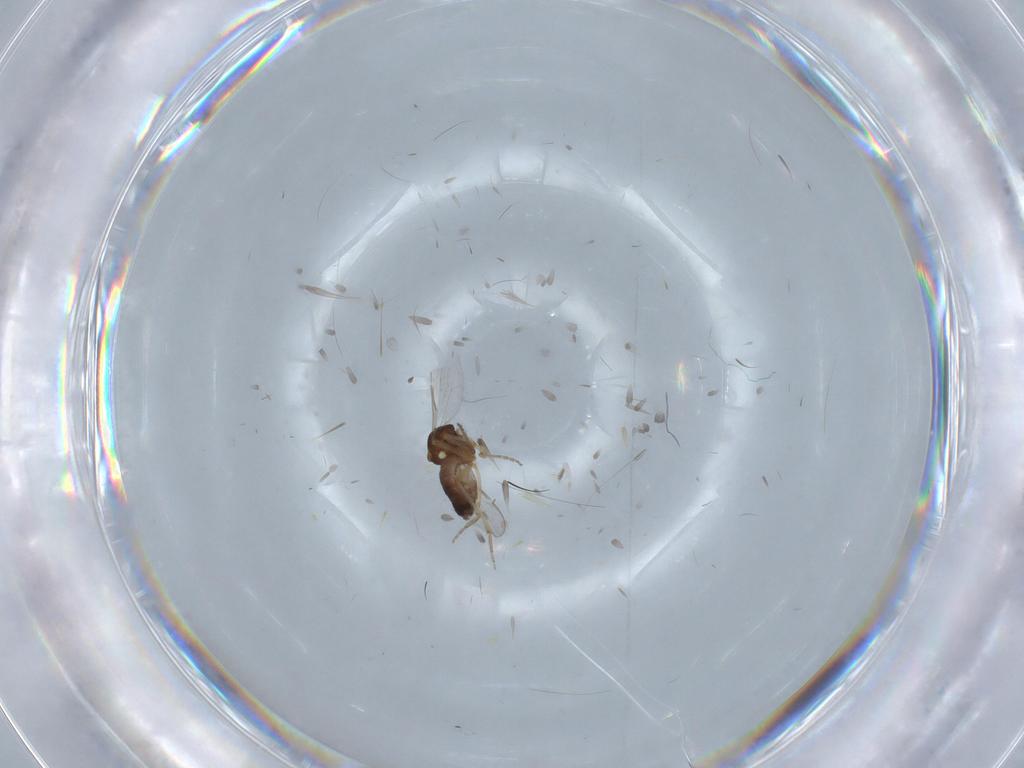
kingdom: Animalia
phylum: Arthropoda
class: Insecta
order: Diptera
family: Ceratopogonidae
